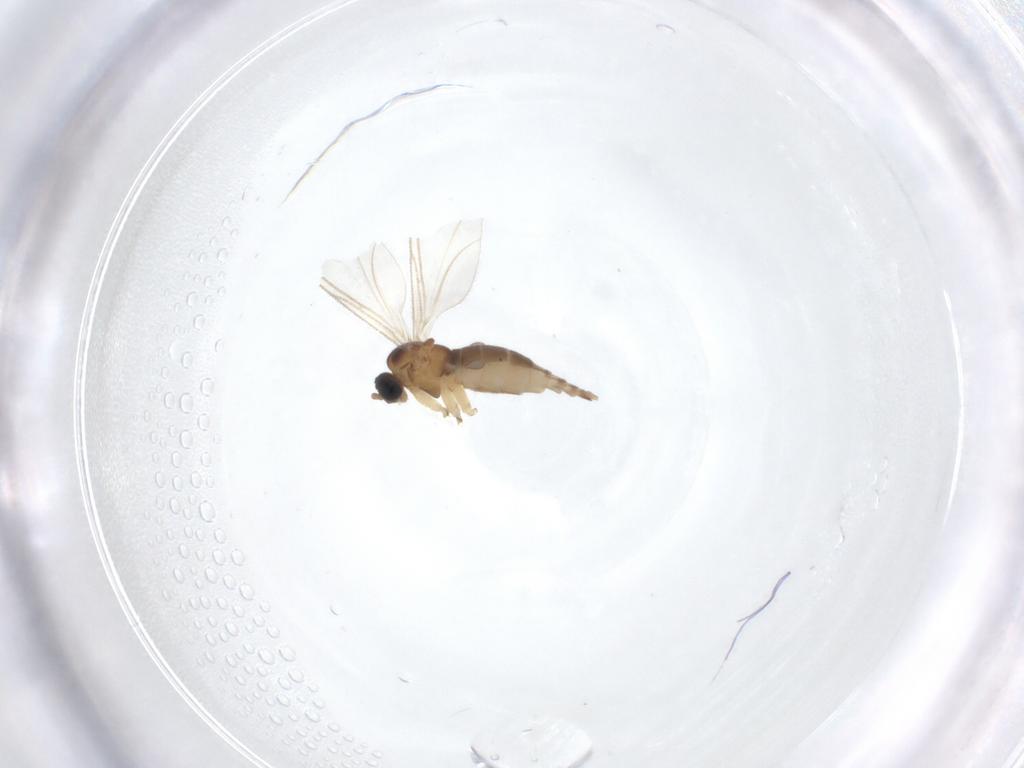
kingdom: Animalia
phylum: Arthropoda
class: Insecta
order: Diptera
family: Sciaridae
